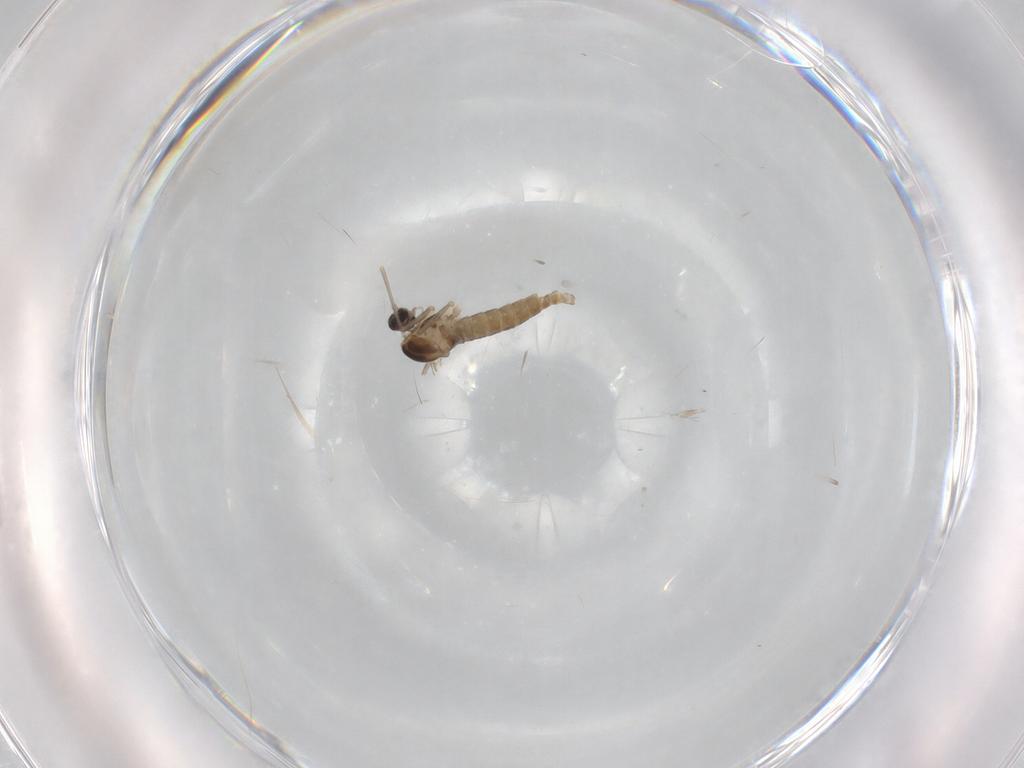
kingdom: Animalia
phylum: Arthropoda
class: Insecta
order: Diptera
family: Cecidomyiidae
